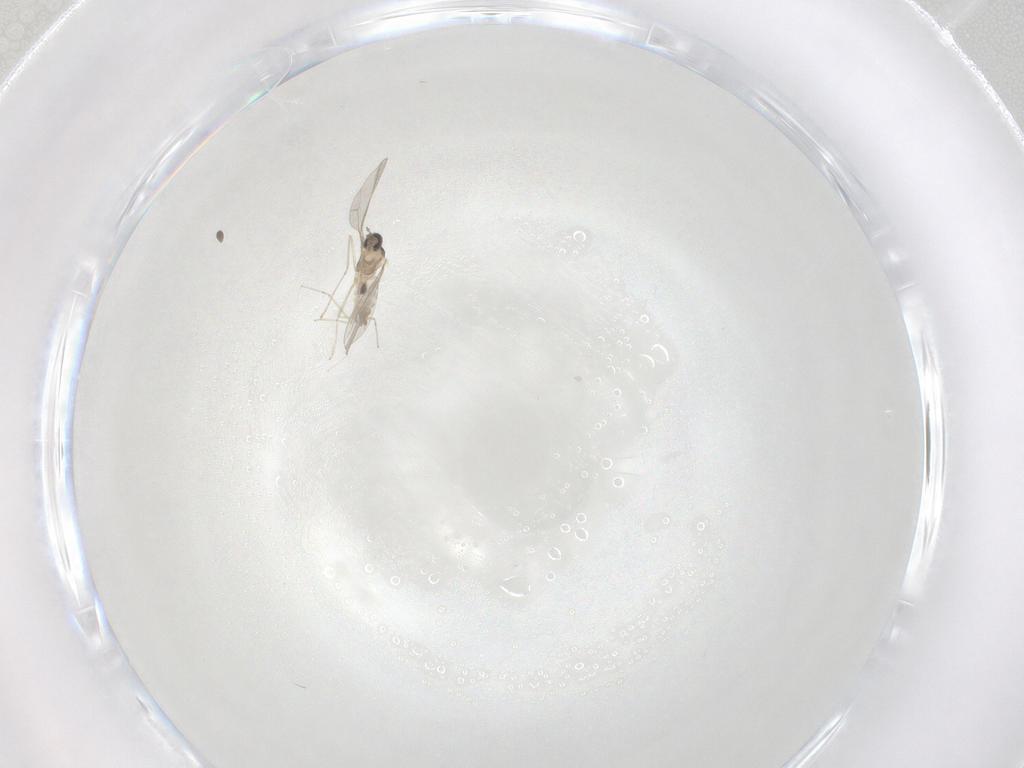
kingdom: Animalia
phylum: Arthropoda
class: Insecta
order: Diptera
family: Cecidomyiidae
